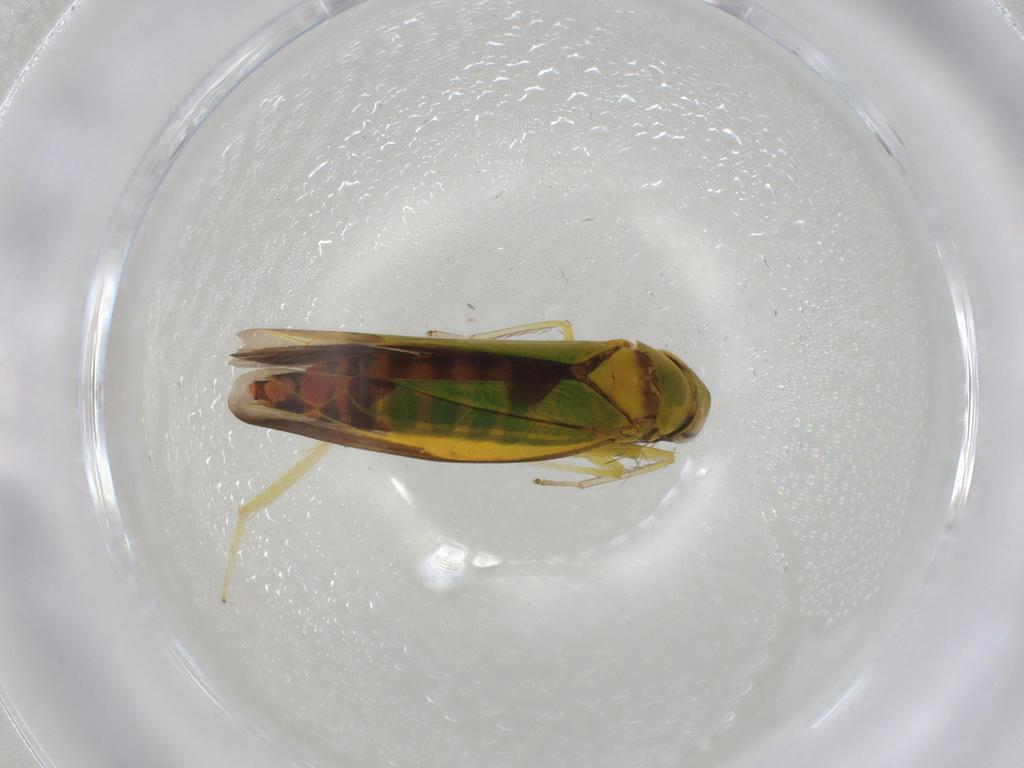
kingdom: Animalia
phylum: Arthropoda
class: Insecta
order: Hemiptera
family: Cicadellidae
